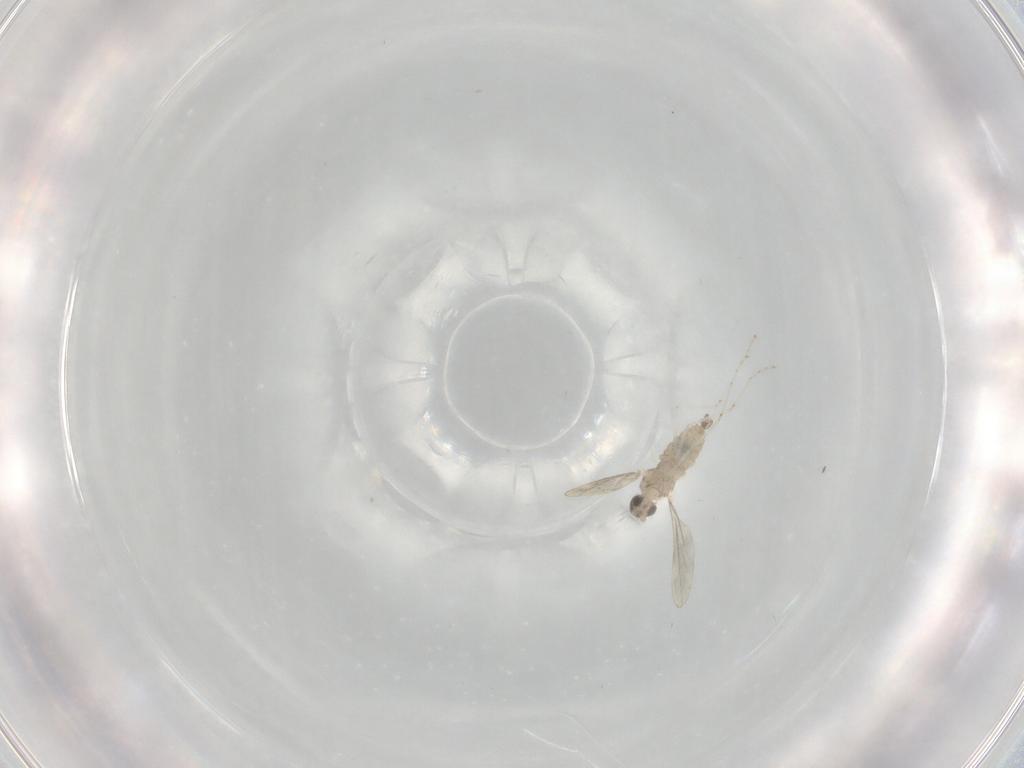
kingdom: Animalia
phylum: Arthropoda
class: Insecta
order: Diptera
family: Cecidomyiidae
